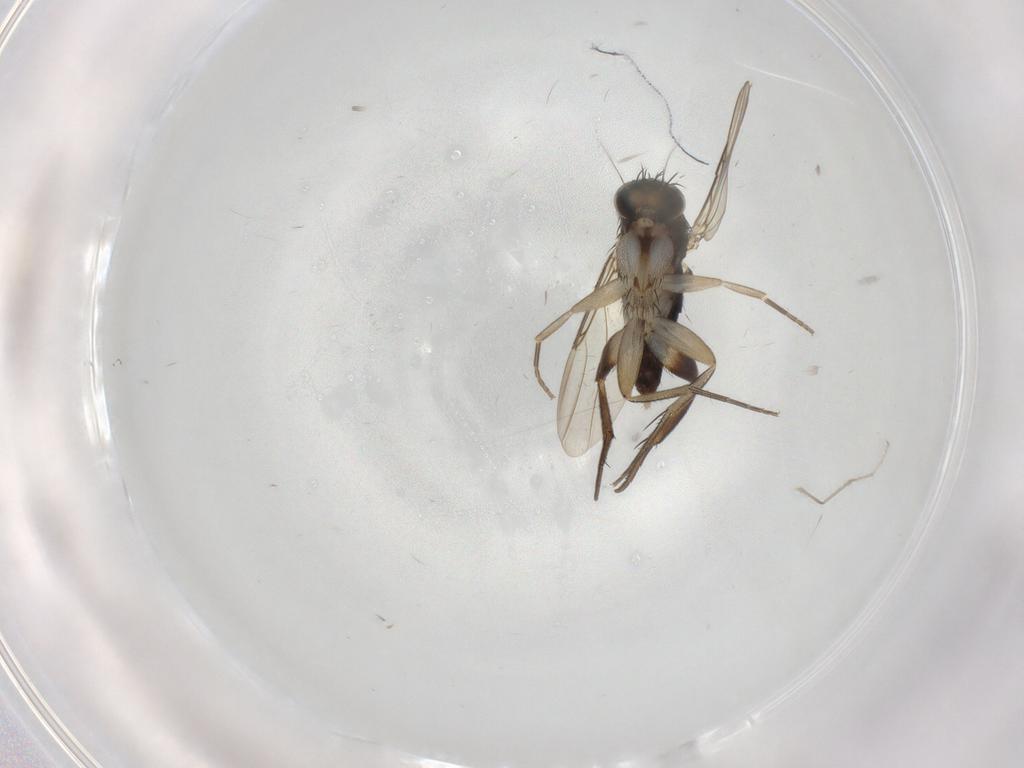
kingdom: Animalia
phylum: Arthropoda
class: Insecta
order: Diptera
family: Phoridae
